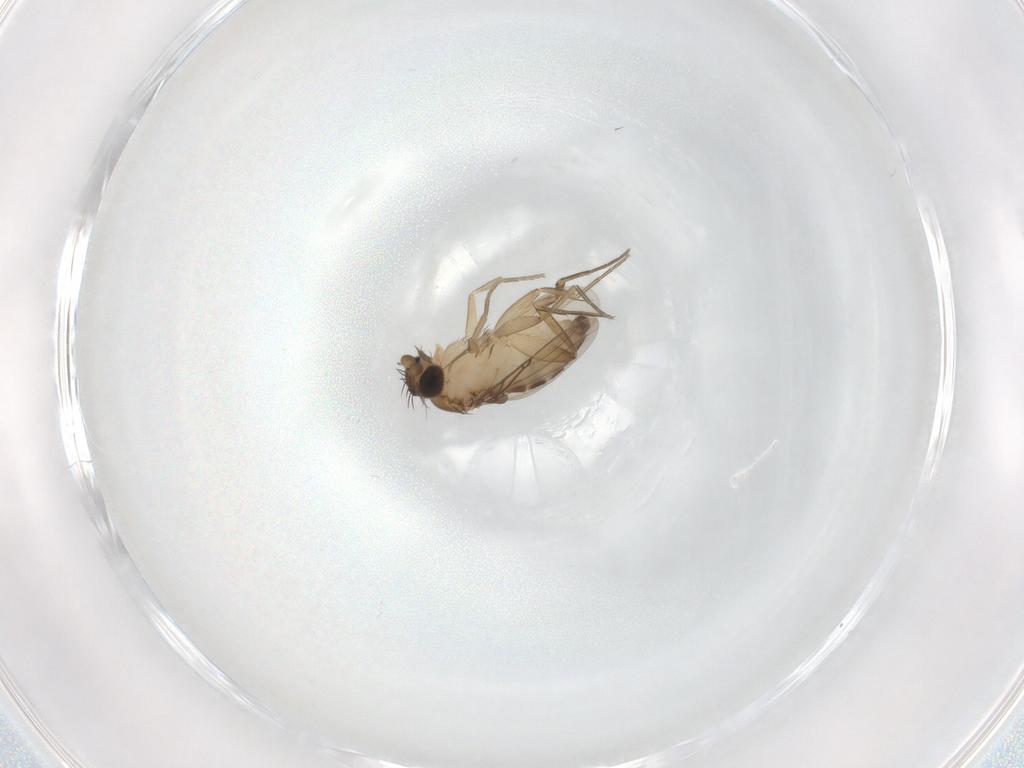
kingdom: Animalia
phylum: Arthropoda
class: Insecta
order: Diptera
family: Phoridae
